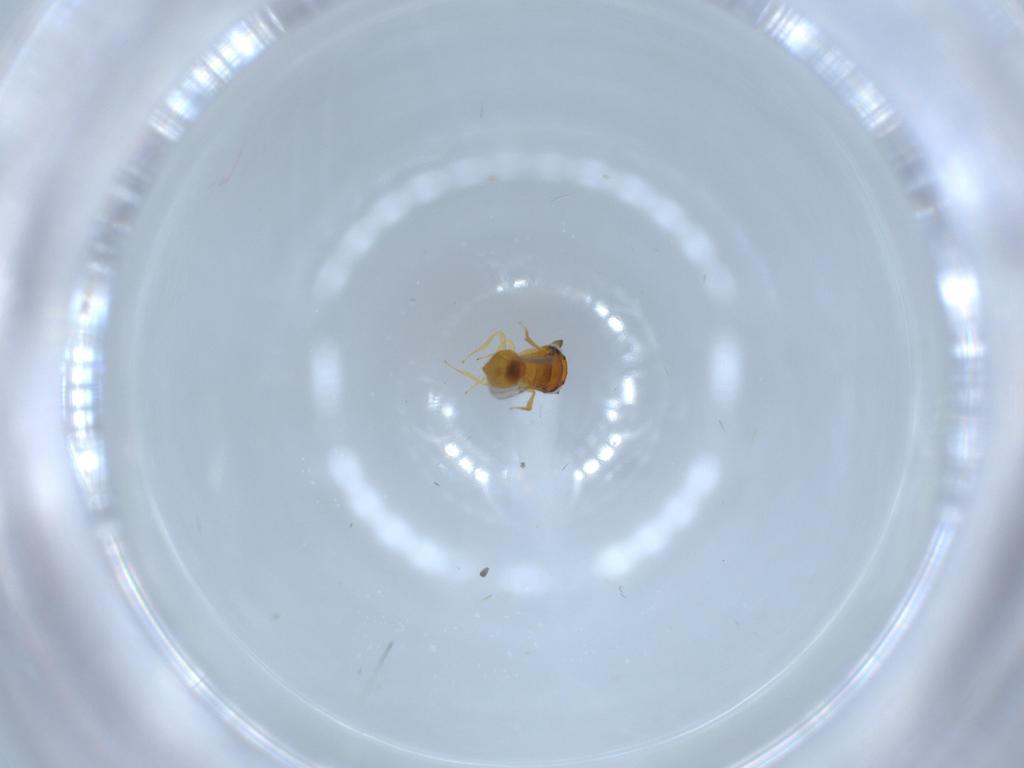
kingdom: Animalia
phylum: Arthropoda
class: Insecta
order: Hymenoptera
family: Scelionidae
